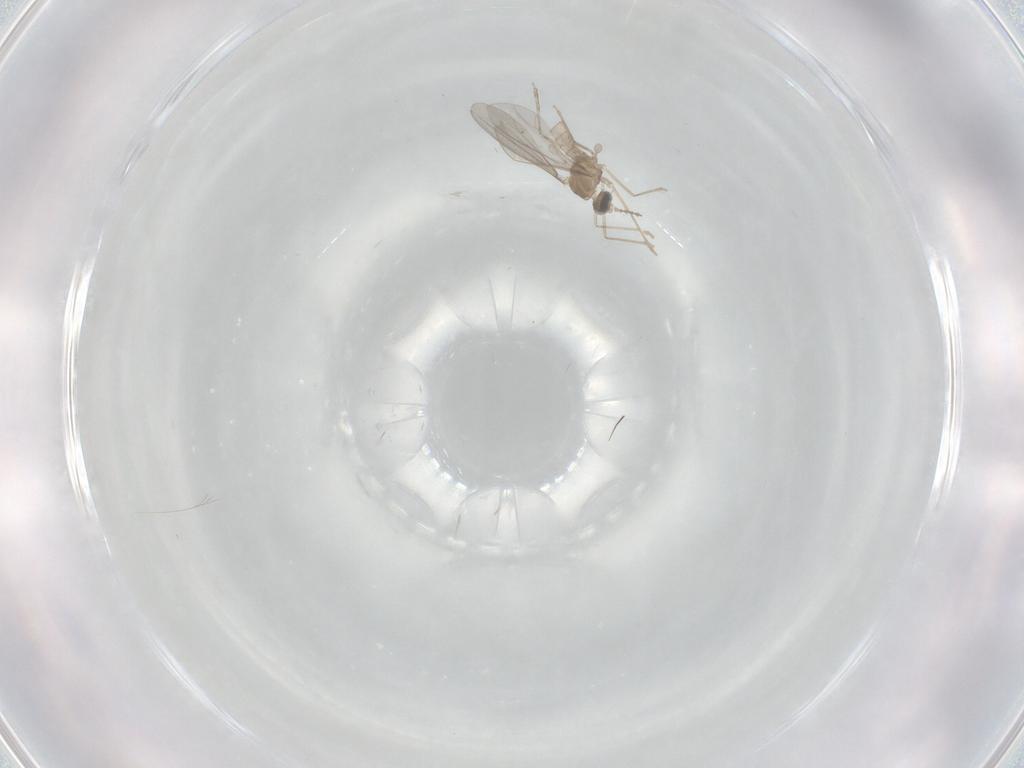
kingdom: Animalia
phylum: Arthropoda
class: Insecta
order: Diptera
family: Cecidomyiidae
